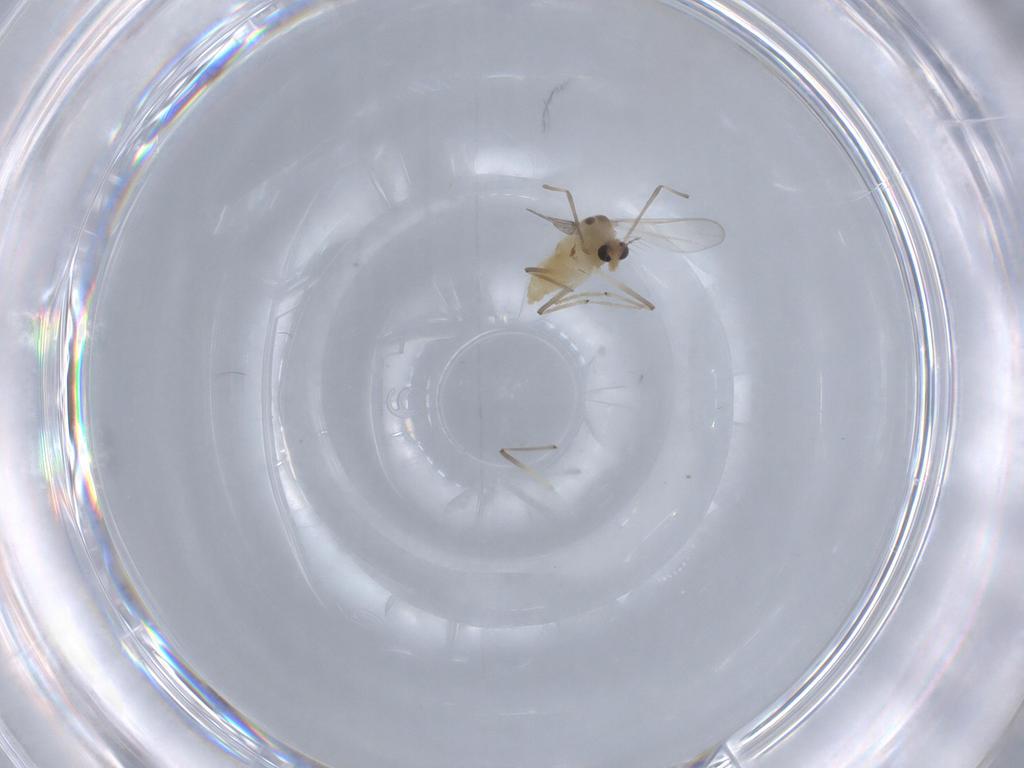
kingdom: Animalia
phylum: Arthropoda
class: Insecta
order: Diptera
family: Chironomidae
